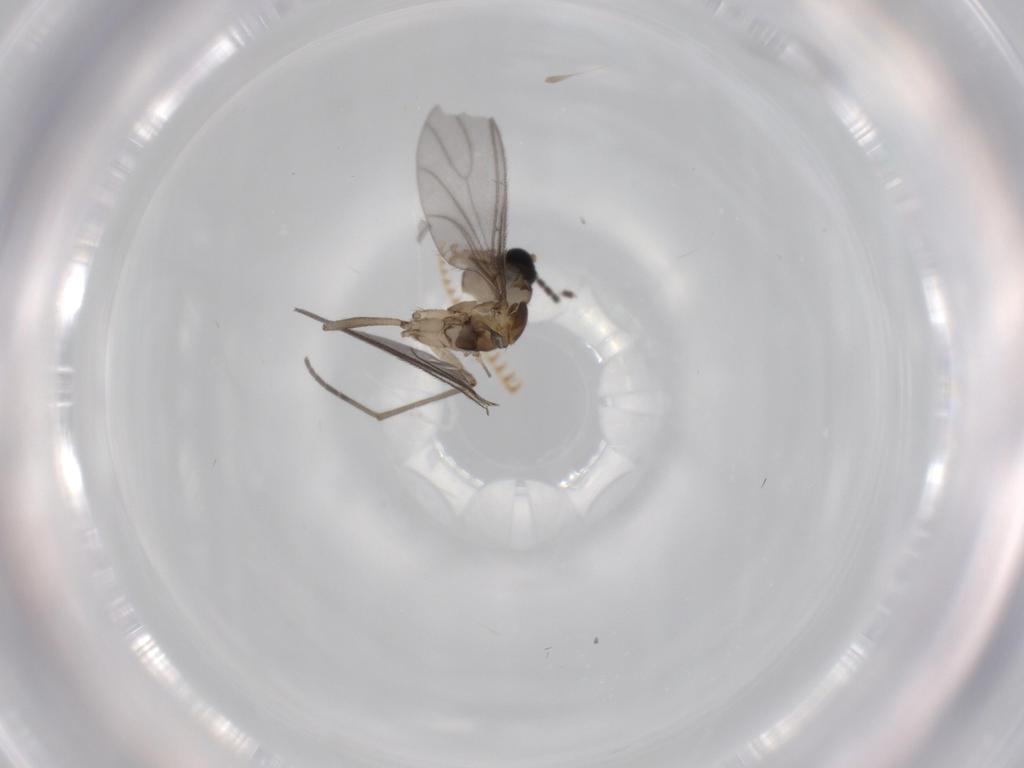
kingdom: Animalia
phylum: Arthropoda
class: Insecta
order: Diptera
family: Sciaridae
